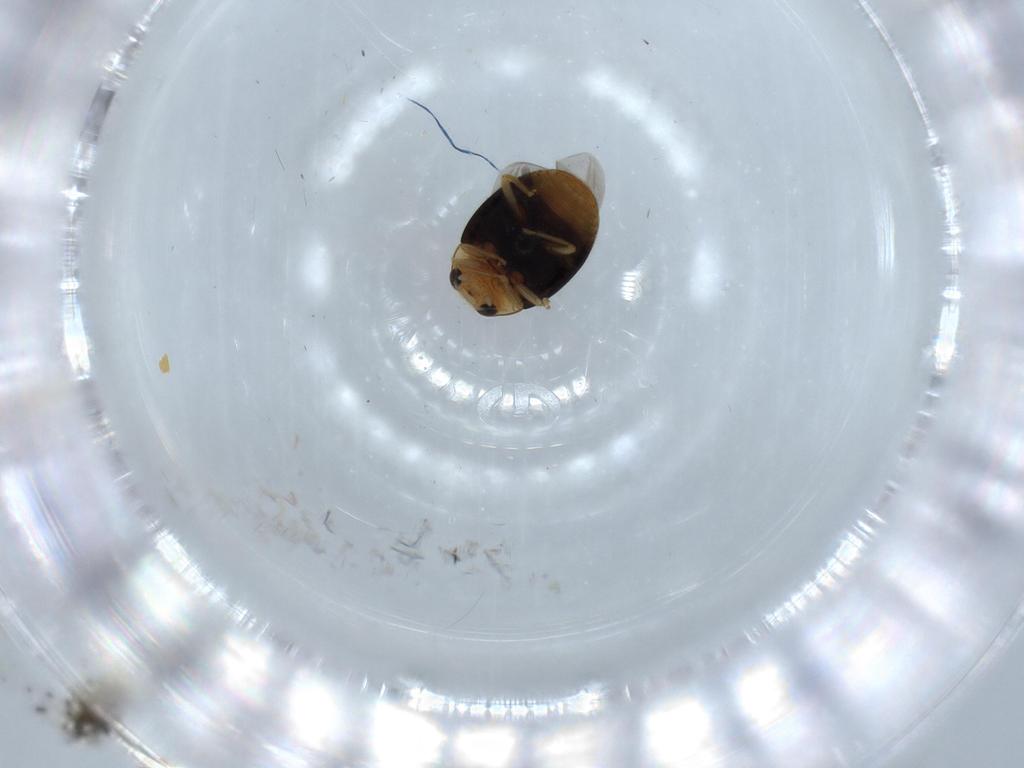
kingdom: Animalia
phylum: Arthropoda
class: Insecta
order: Coleoptera
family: Coccinellidae
